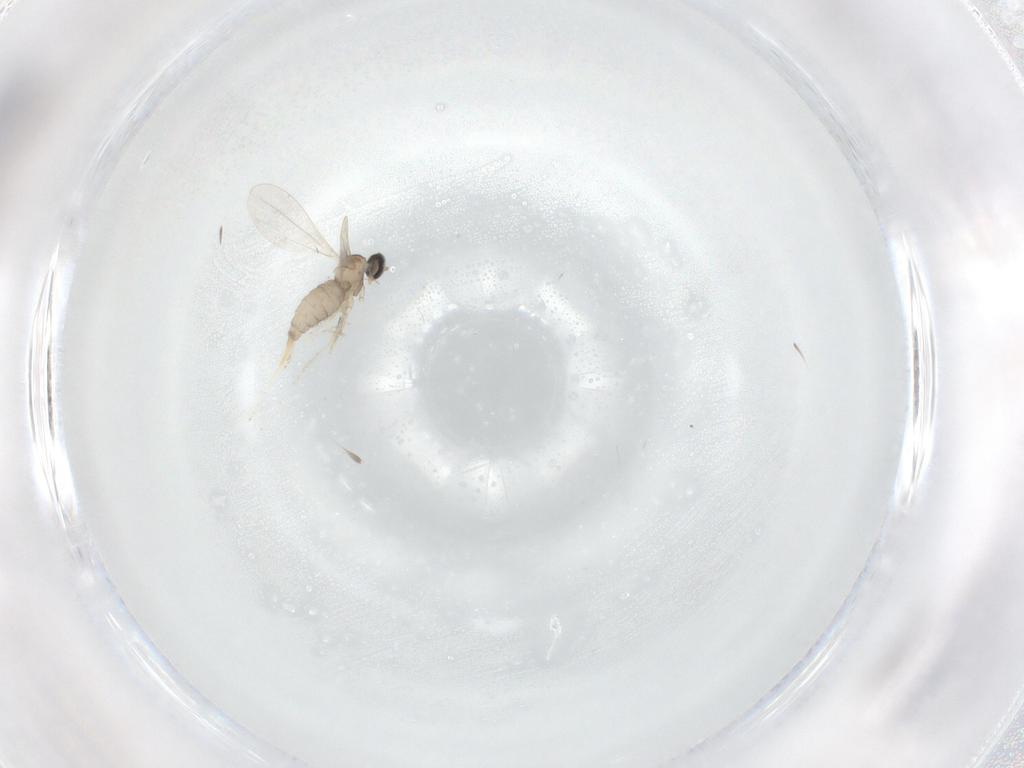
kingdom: Animalia
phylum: Arthropoda
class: Insecta
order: Diptera
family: Cecidomyiidae
